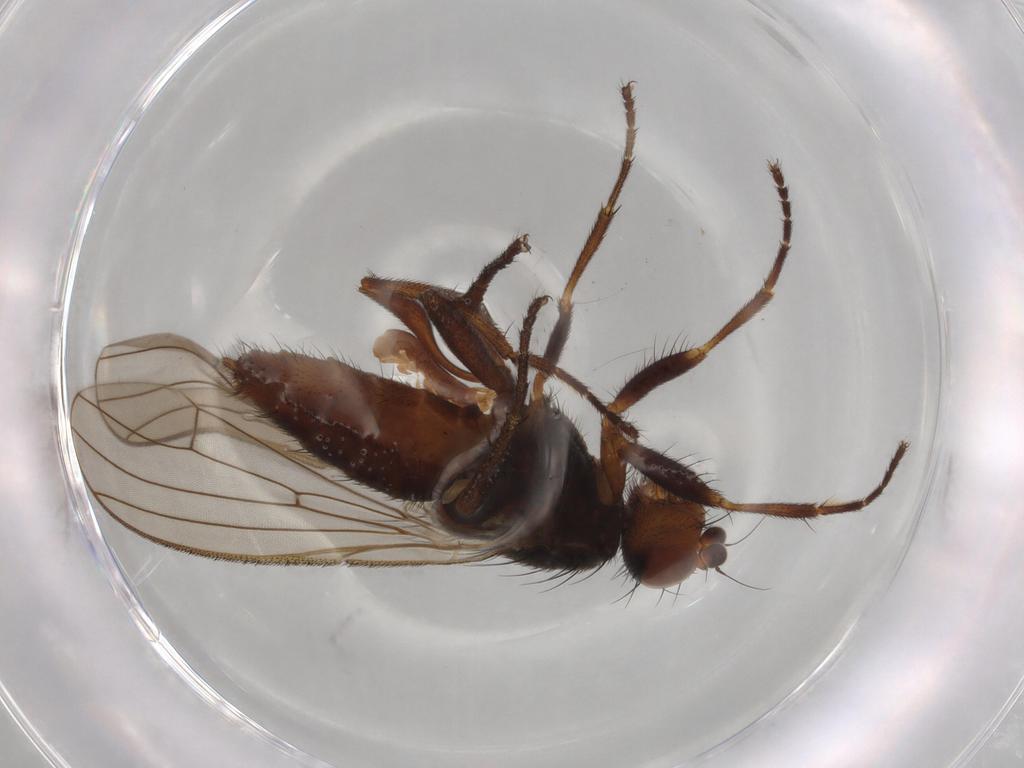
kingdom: Animalia
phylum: Arthropoda
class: Insecta
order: Diptera
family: Heleomyzidae
